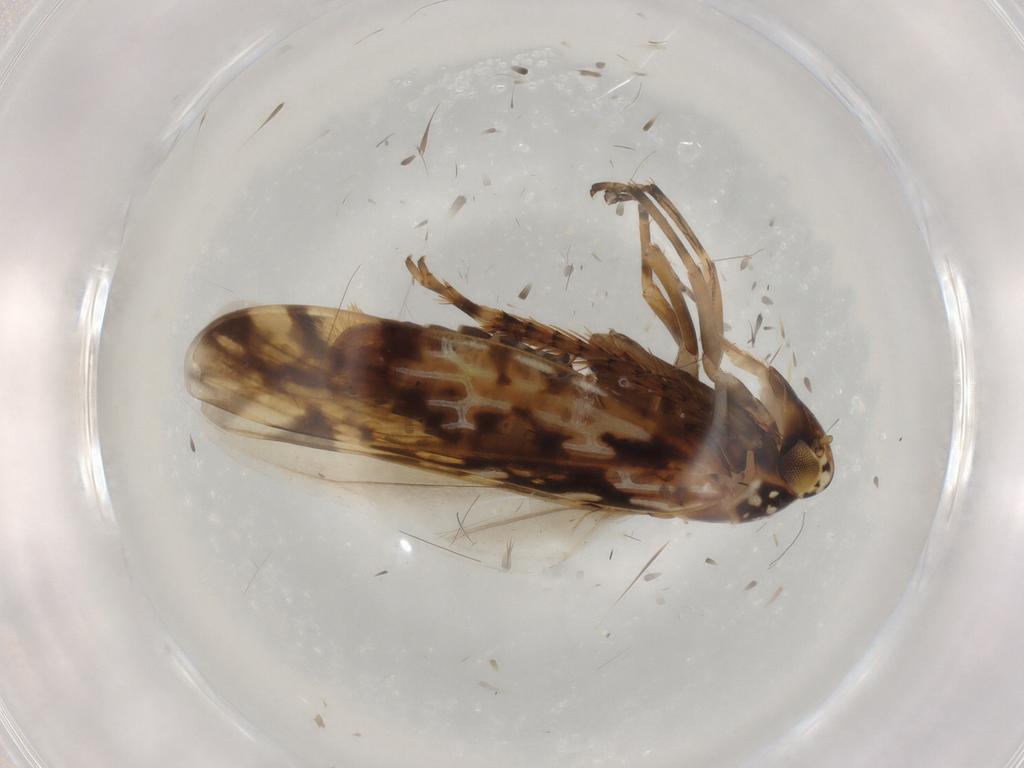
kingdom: Animalia
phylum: Arthropoda
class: Insecta
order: Hemiptera
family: Cicadellidae
